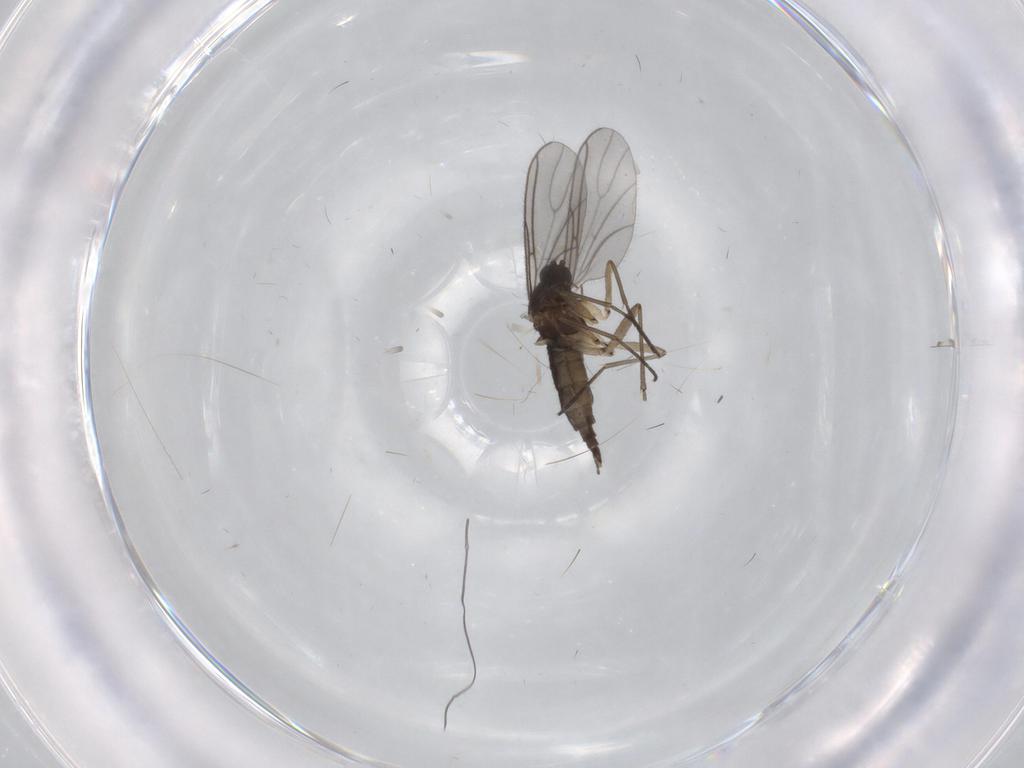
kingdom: Animalia
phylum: Arthropoda
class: Insecta
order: Diptera
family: Sciaridae
